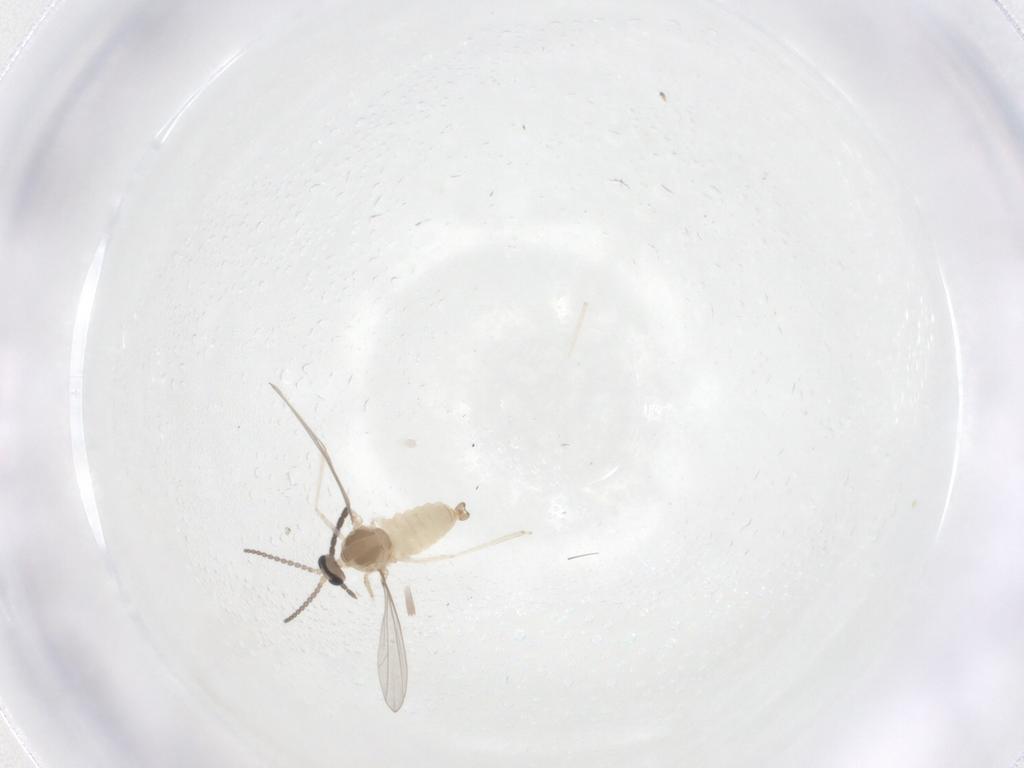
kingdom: Animalia
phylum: Arthropoda
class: Insecta
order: Diptera
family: Sciaridae
